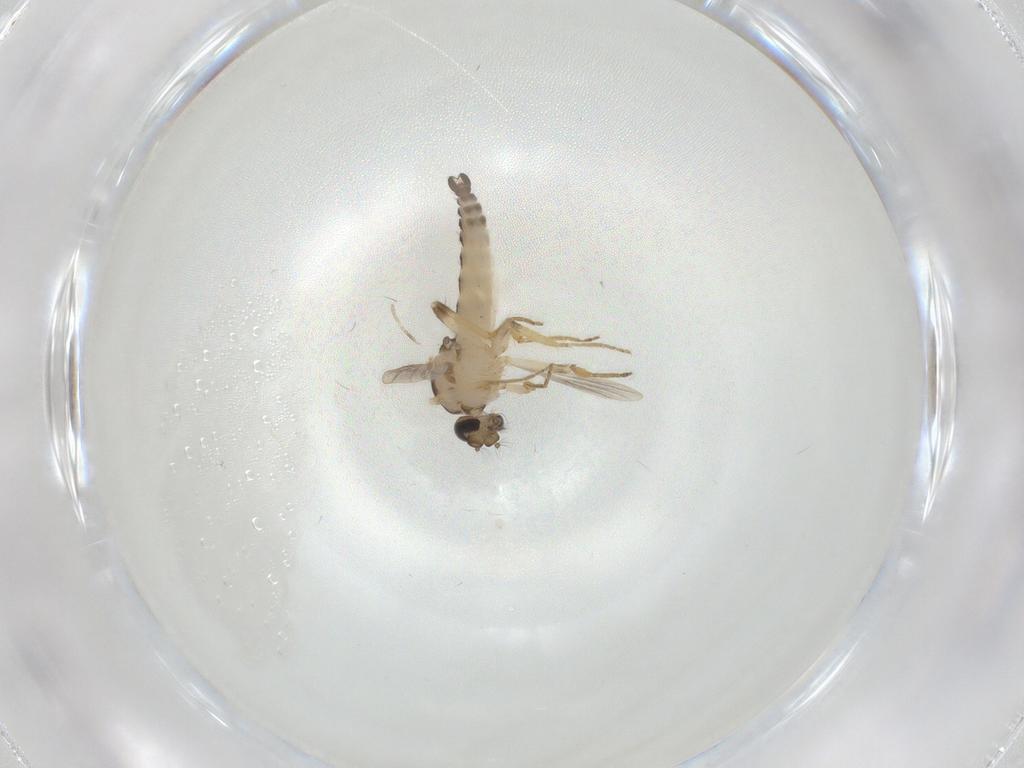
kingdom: Animalia
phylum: Arthropoda
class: Insecta
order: Diptera
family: Ceratopogonidae
